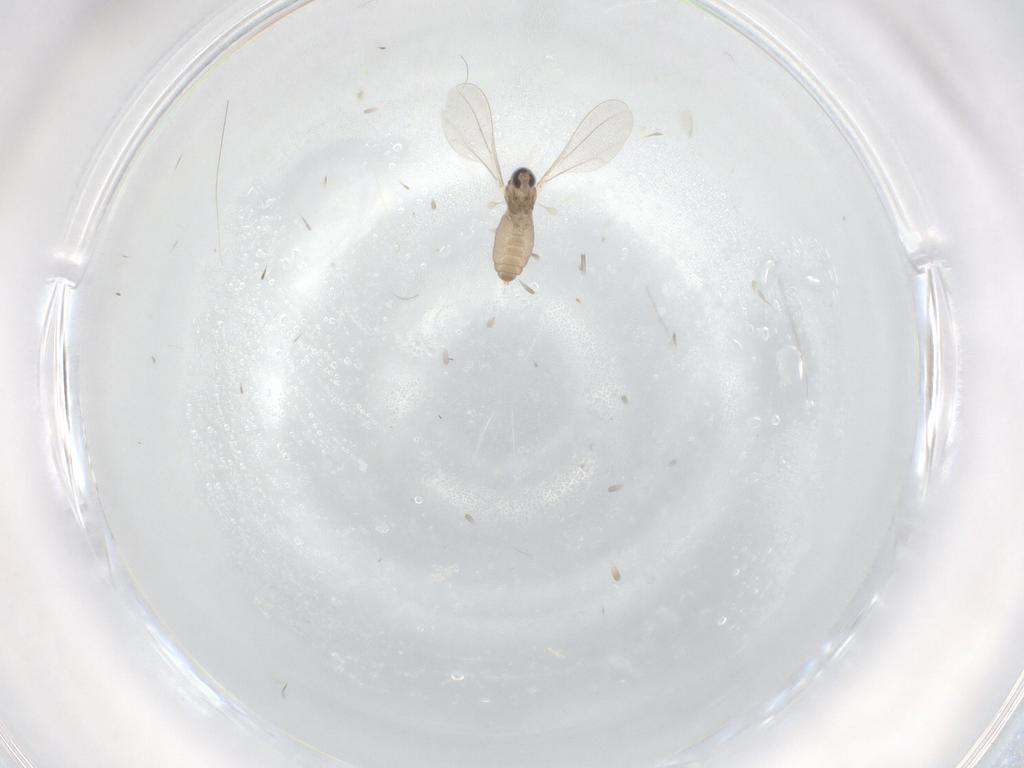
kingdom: Animalia
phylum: Arthropoda
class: Insecta
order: Diptera
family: Cecidomyiidae
